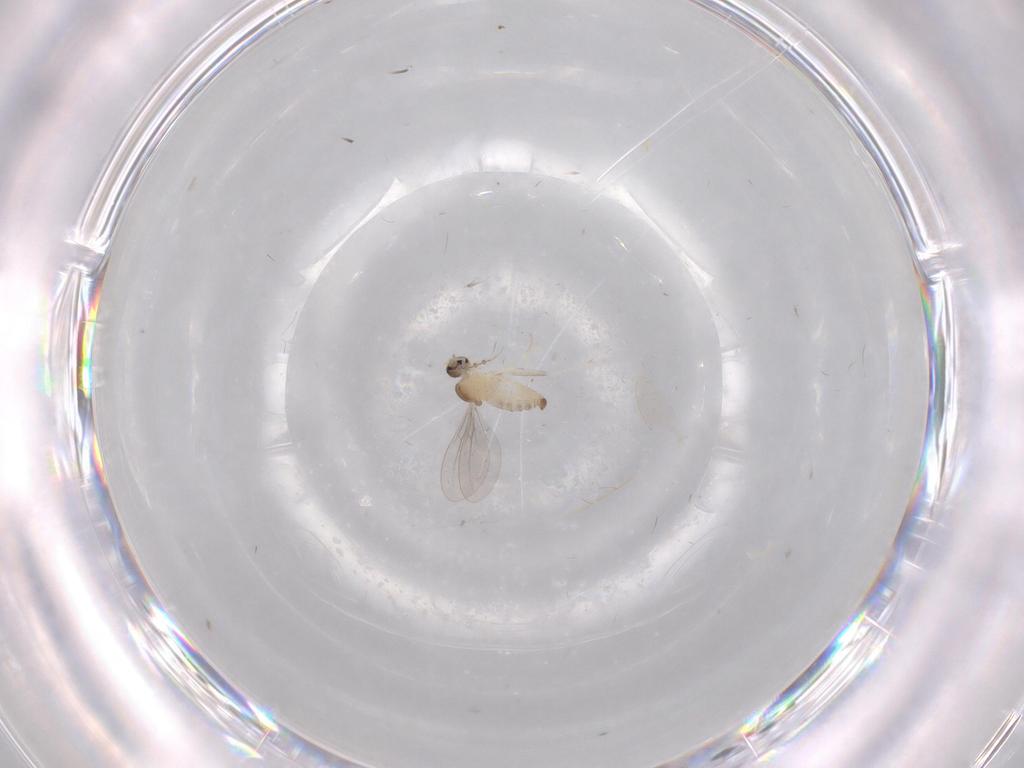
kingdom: Animalia
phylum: Arthropoda
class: Insecta
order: Diptera
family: Cecidomyiidae
